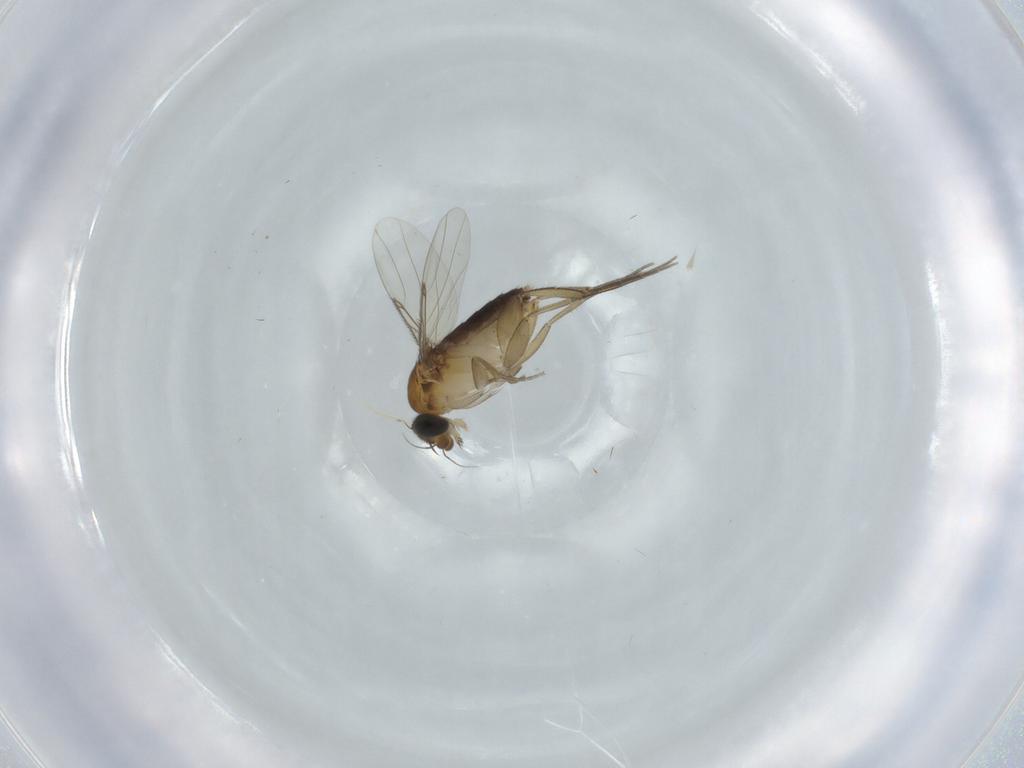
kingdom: Animalia
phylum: Arthropoda
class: Insecta
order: Diptera
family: Phoridae
